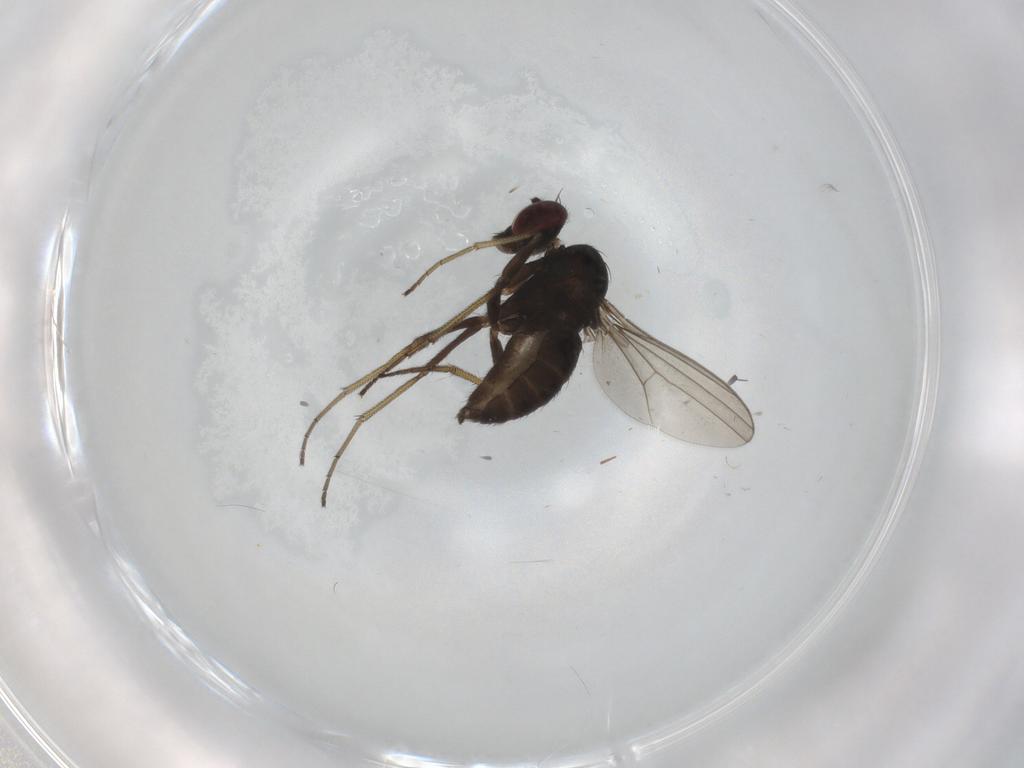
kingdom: Animalia
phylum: Arthropoda
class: Insecta
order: Diptera
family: Dolichopodidae
